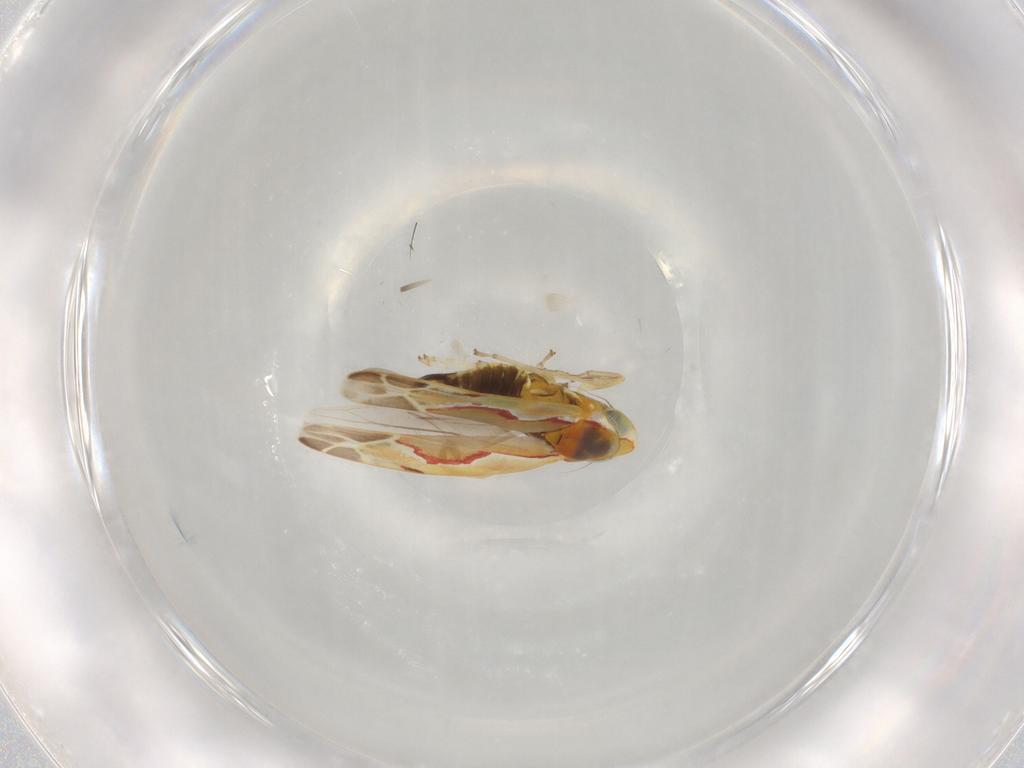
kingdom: Animalia
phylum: Arthropoda
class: Insecta
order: Hemiptera
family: Cicadellidae
